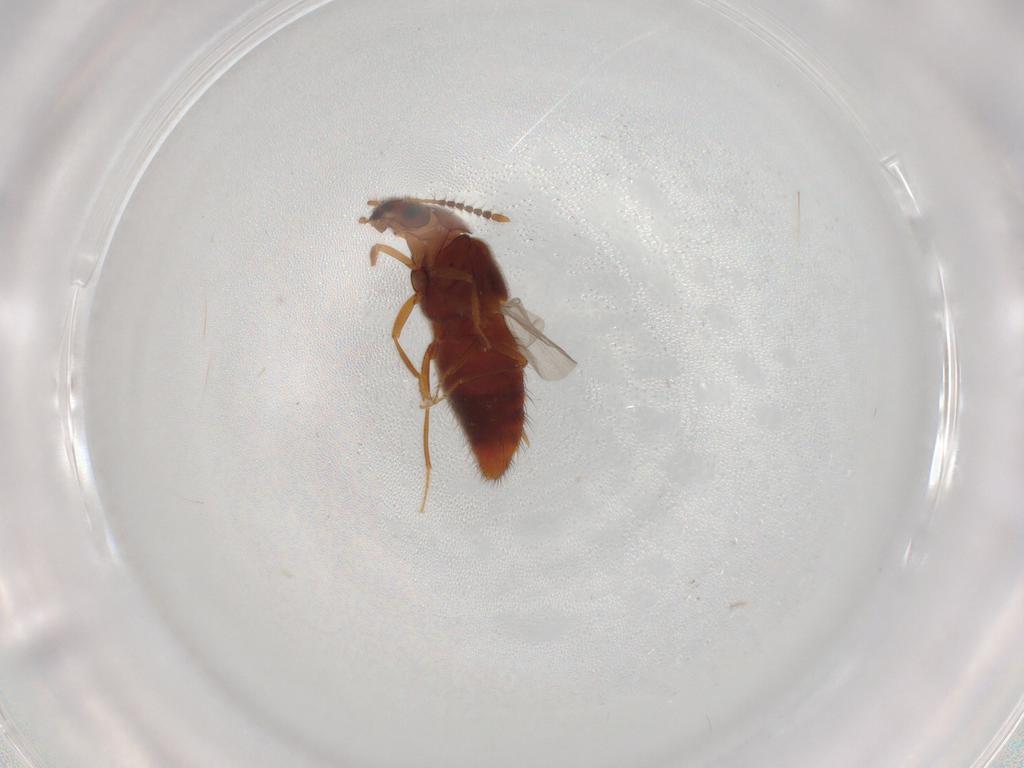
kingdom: Animalia
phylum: Arthropoda
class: Insecta
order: Coleoptera
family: Staphylinidae
